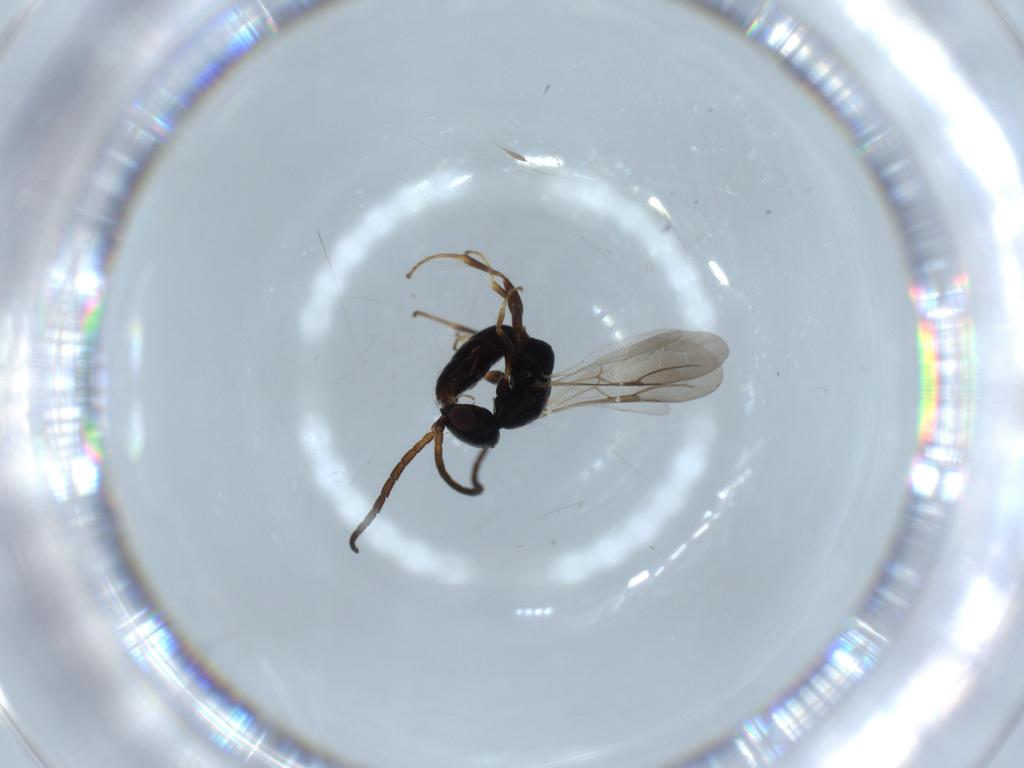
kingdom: Animalia
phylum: Arthropoda
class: Insecta
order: Hymenoptera
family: Bethylidae
